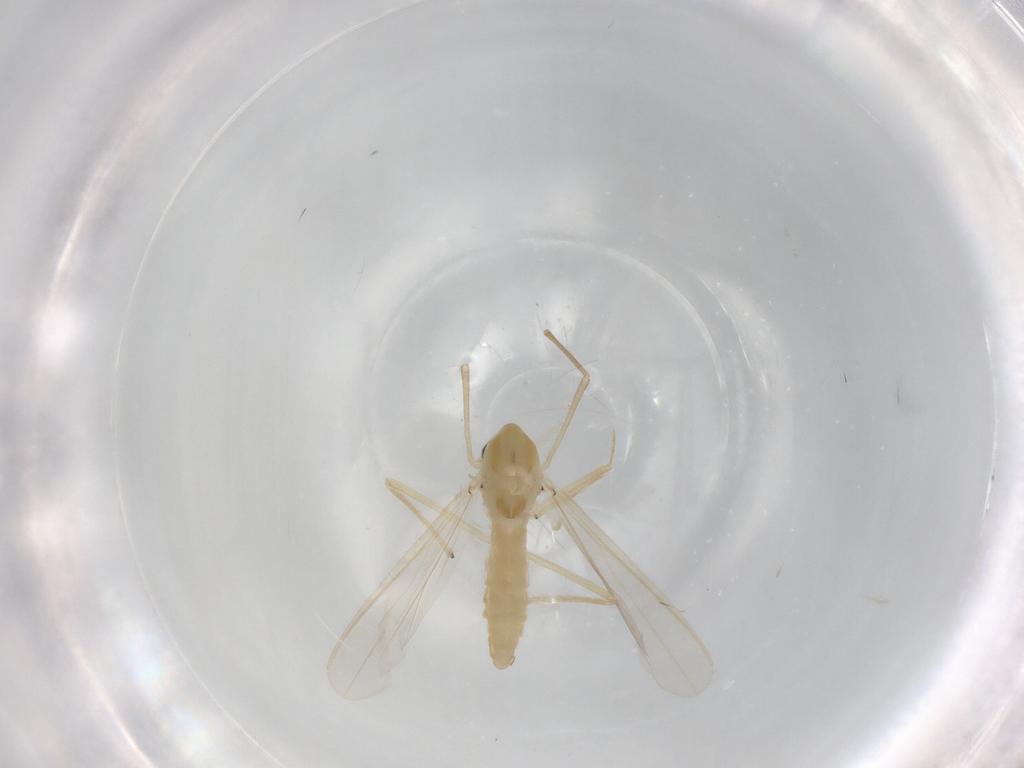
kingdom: Animalia
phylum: Arthropoda
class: Insecta
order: Diptera
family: Chironomidae
